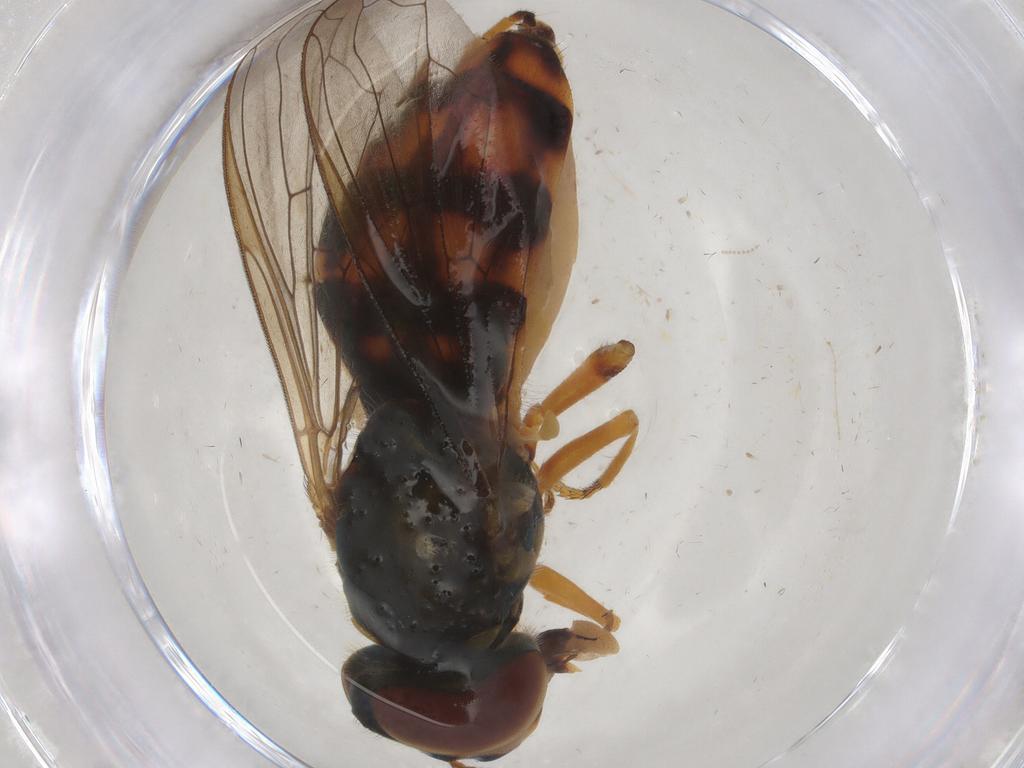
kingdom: Animalia
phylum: Arthropoda
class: Insecta
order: Diptera
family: Syrphidae
